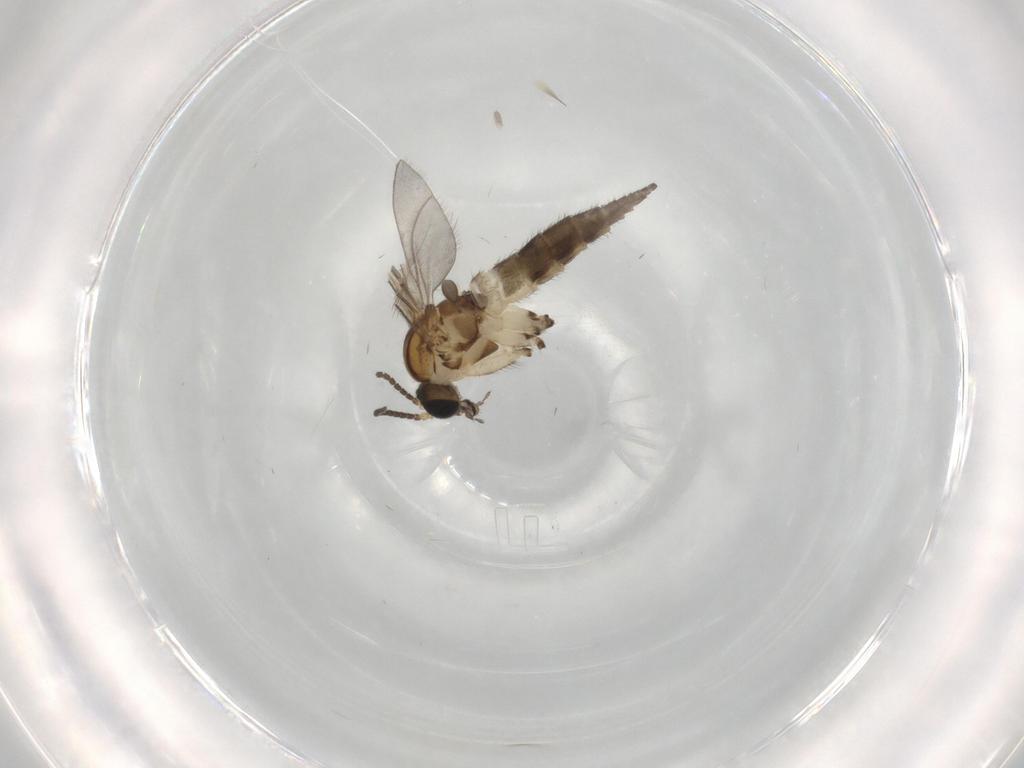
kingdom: Animalia
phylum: Arthropoda
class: Insecta
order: Diptera
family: Sciaridae
